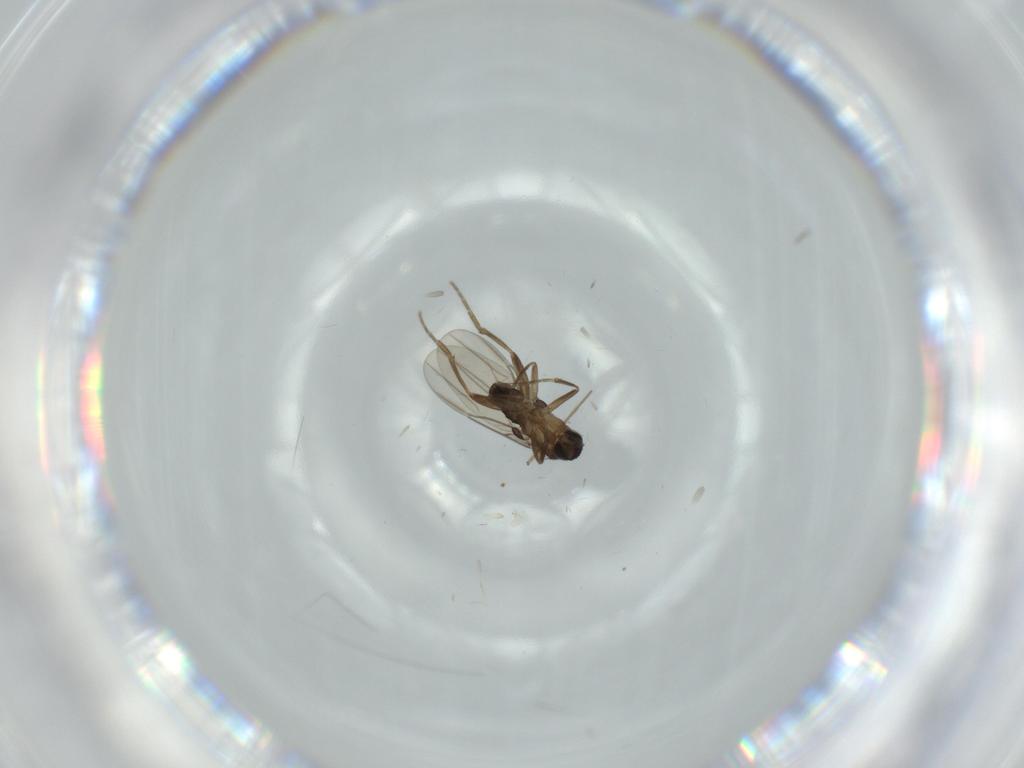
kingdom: Animalia
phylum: Arthropoda
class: Insecta
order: Diptera
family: Phoridae
